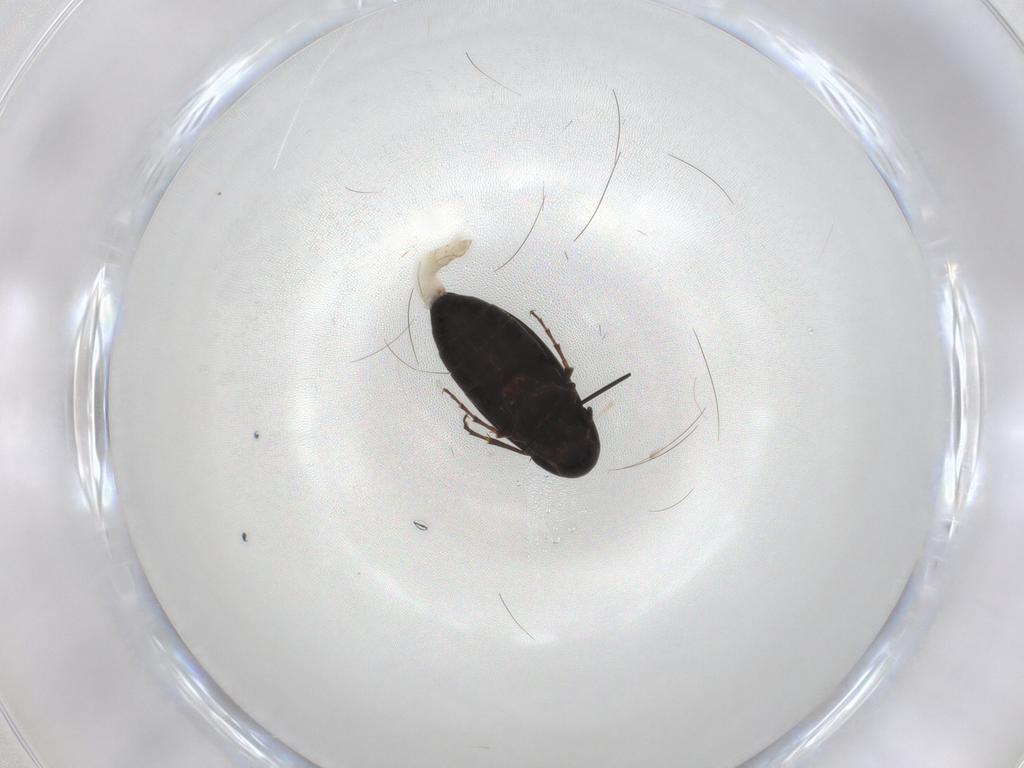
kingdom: Animalia
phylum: Arthropoda
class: Insecta
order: Coleoptera
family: Scraptiidae
